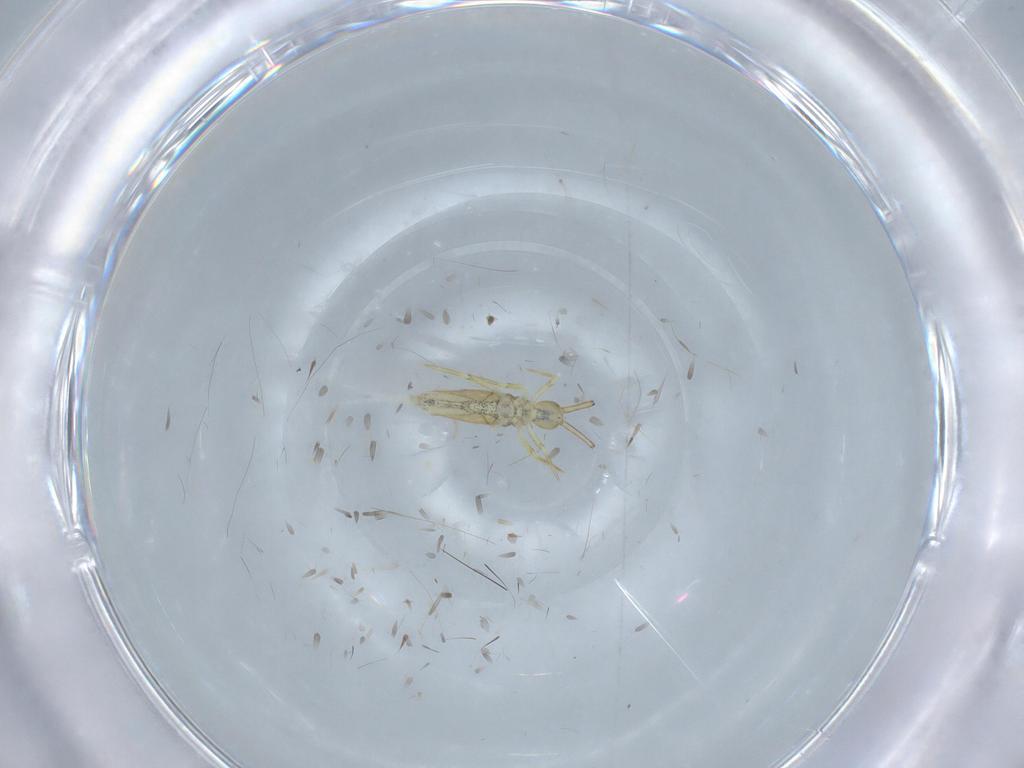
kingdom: Animalia
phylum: Arthropoda
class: Collembola
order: Entomobryomorpha
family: Paronellidae
